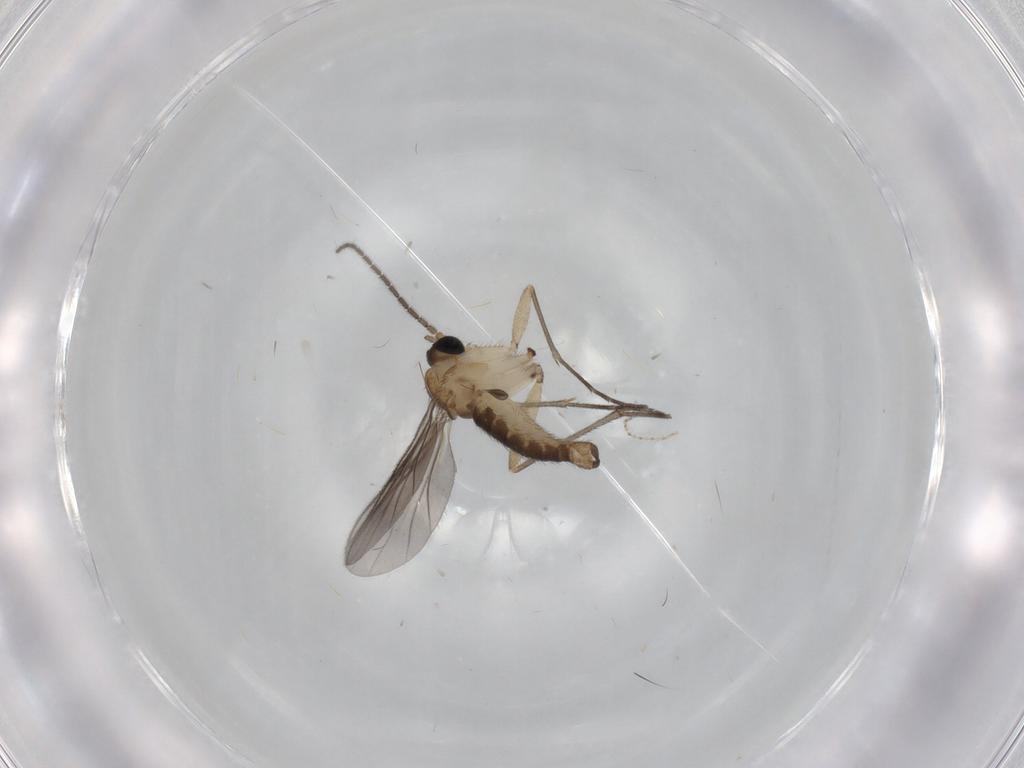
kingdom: Animalia
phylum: Arthropoda
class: Insecta
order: Diptera
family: Sciaridae
